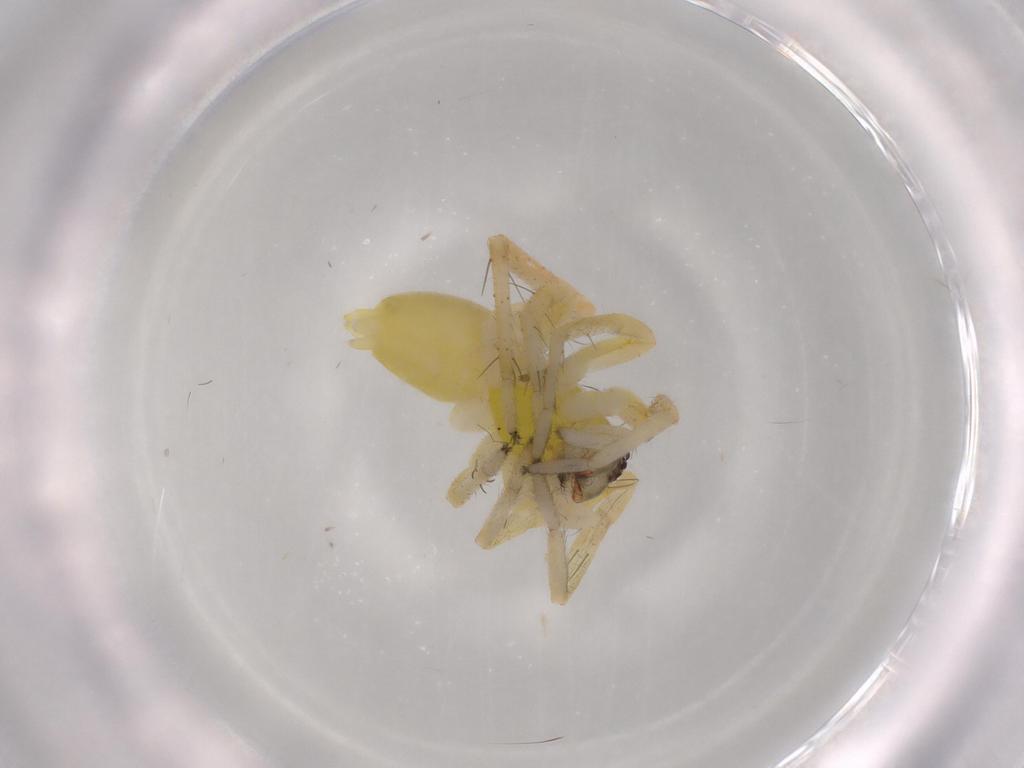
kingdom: Animalia
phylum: Arthropoda
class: Arachnida
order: Araneae
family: Anyphaenidae
